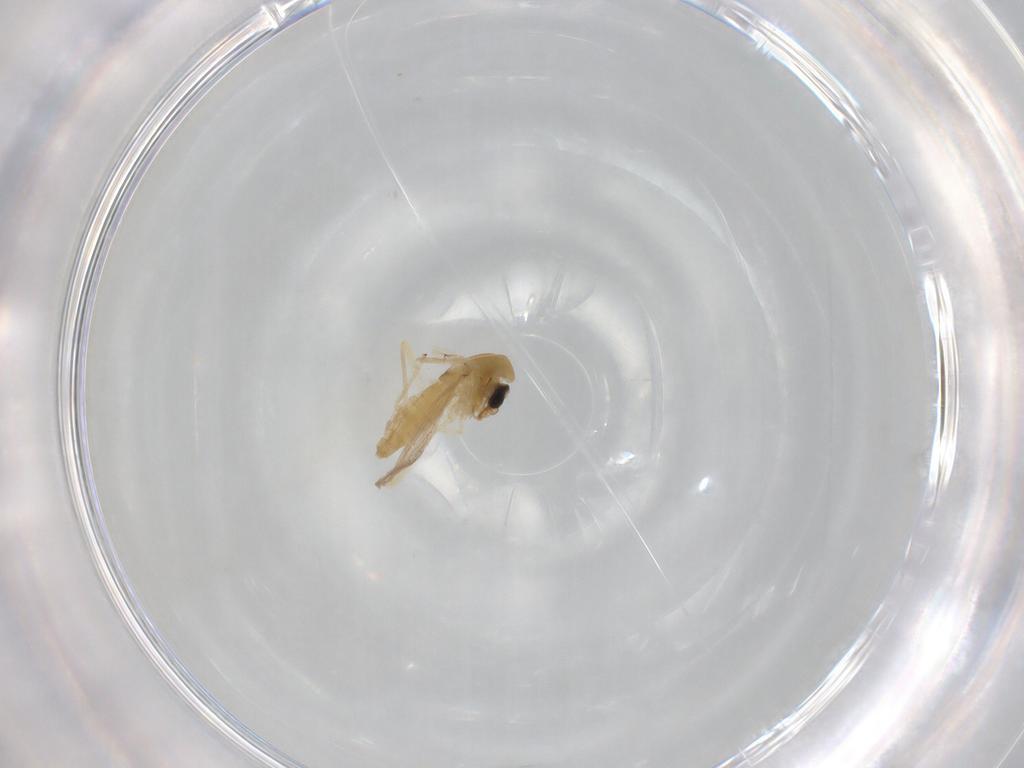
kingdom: Animalia
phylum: Arthropoda
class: Insecta
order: Diptera
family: Chironomidae
